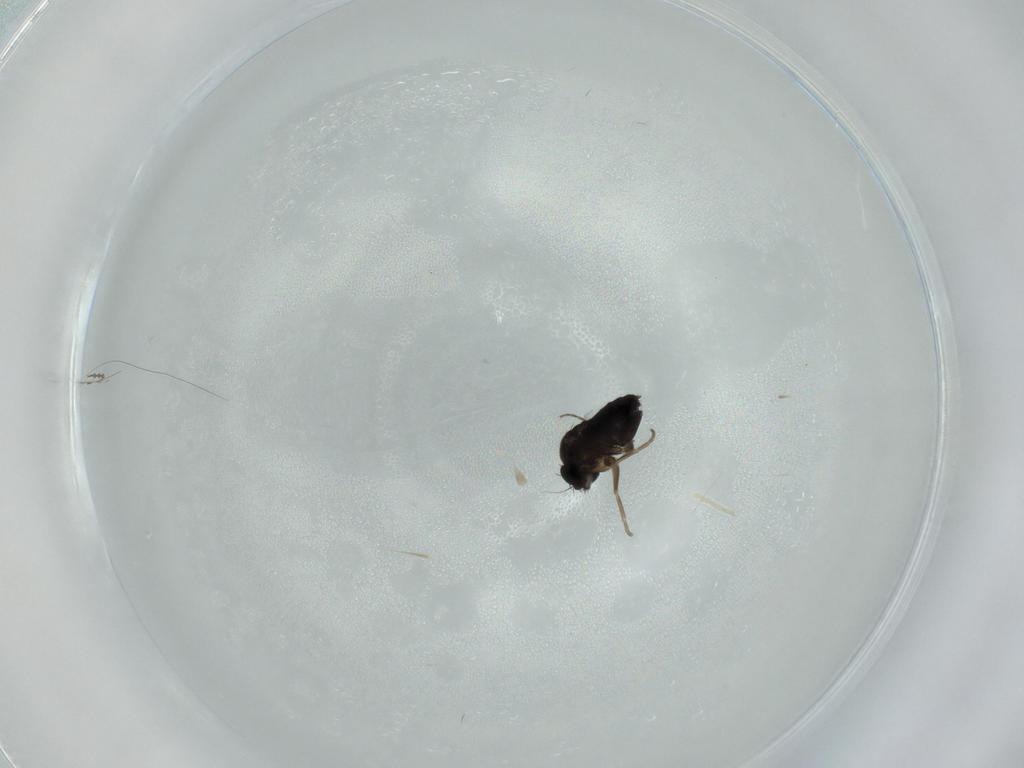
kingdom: Animalia
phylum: Arthropoda
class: Insecta
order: Diptera
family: Phoridae
